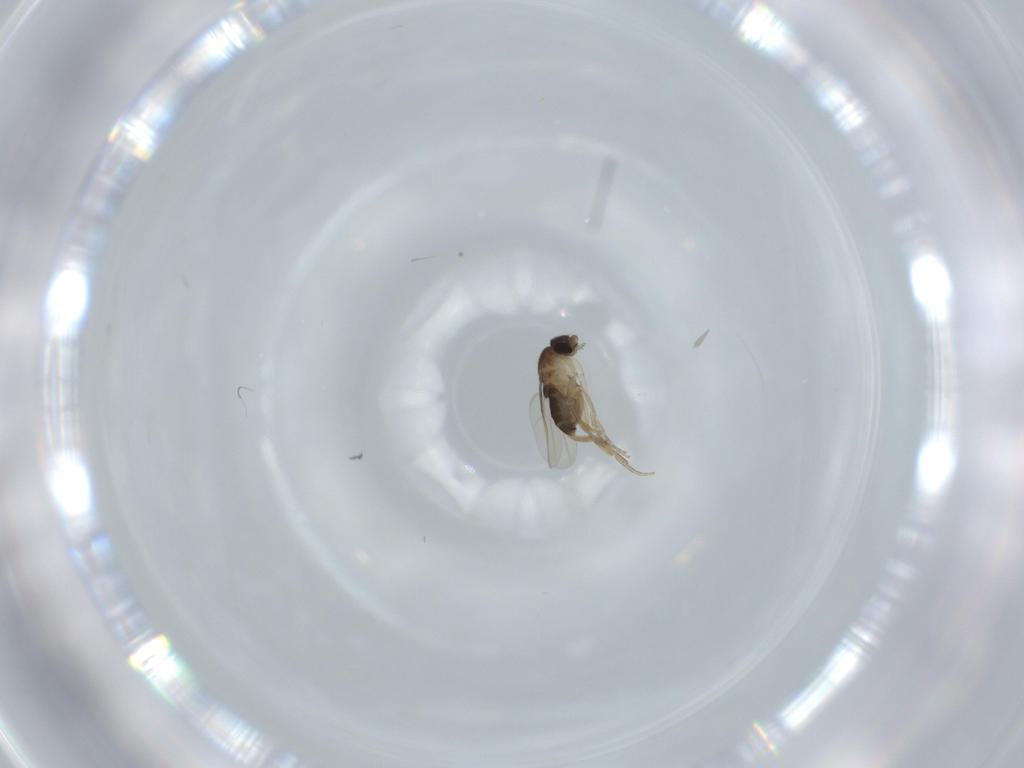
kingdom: Animalia
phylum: Arthropoda
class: Insecta
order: Diptera
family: Phoridae
